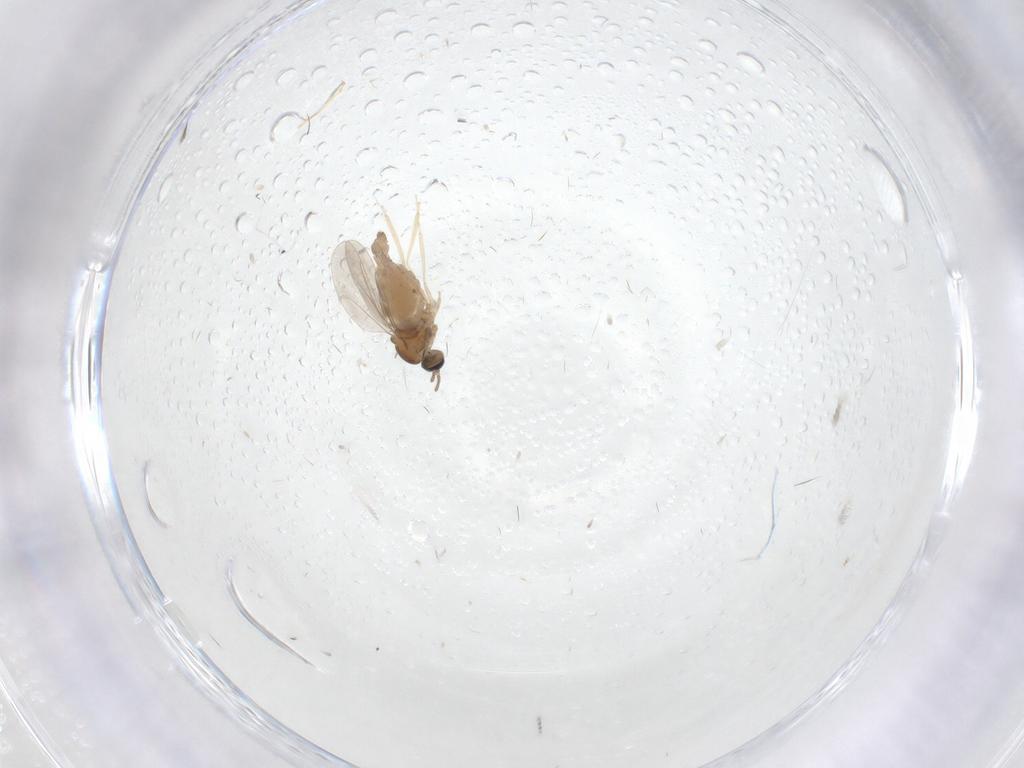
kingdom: Animalia
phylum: Arthropoda
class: Insecta
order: Diptera
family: Cecidomyiidae
